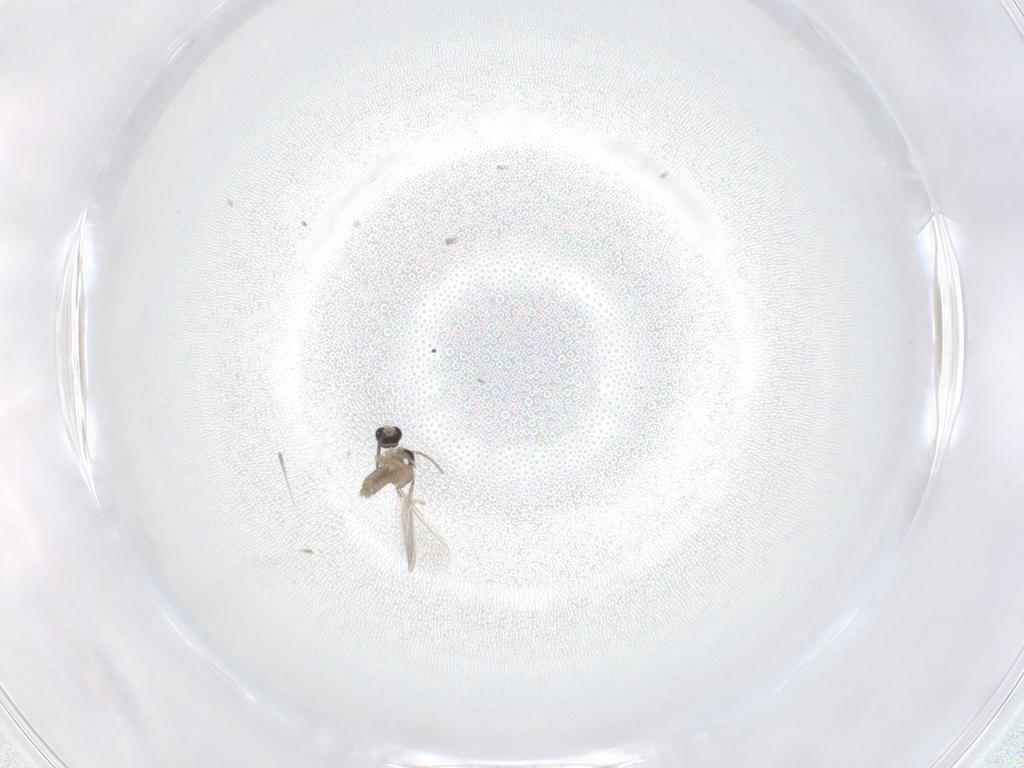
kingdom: Animalia
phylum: Arthropoda
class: Insecta
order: Diptera
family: Cecidomyiidae
